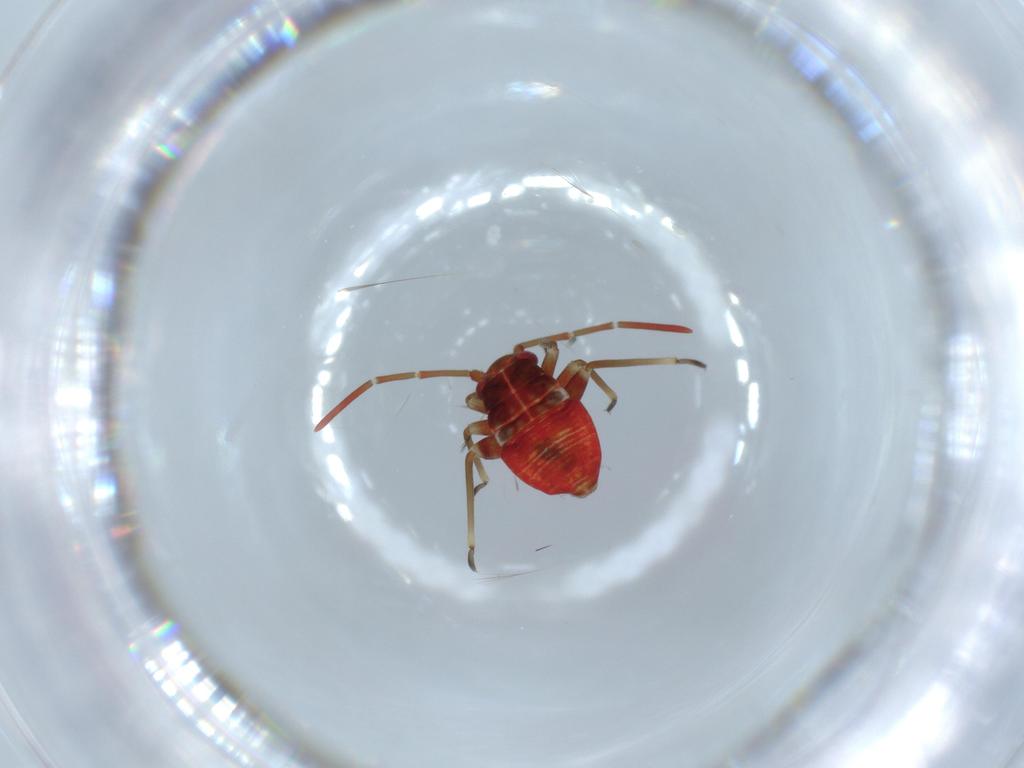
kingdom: Animalia
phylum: Arthropoda
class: Insecta
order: Hemiptera
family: Cicadellidae
